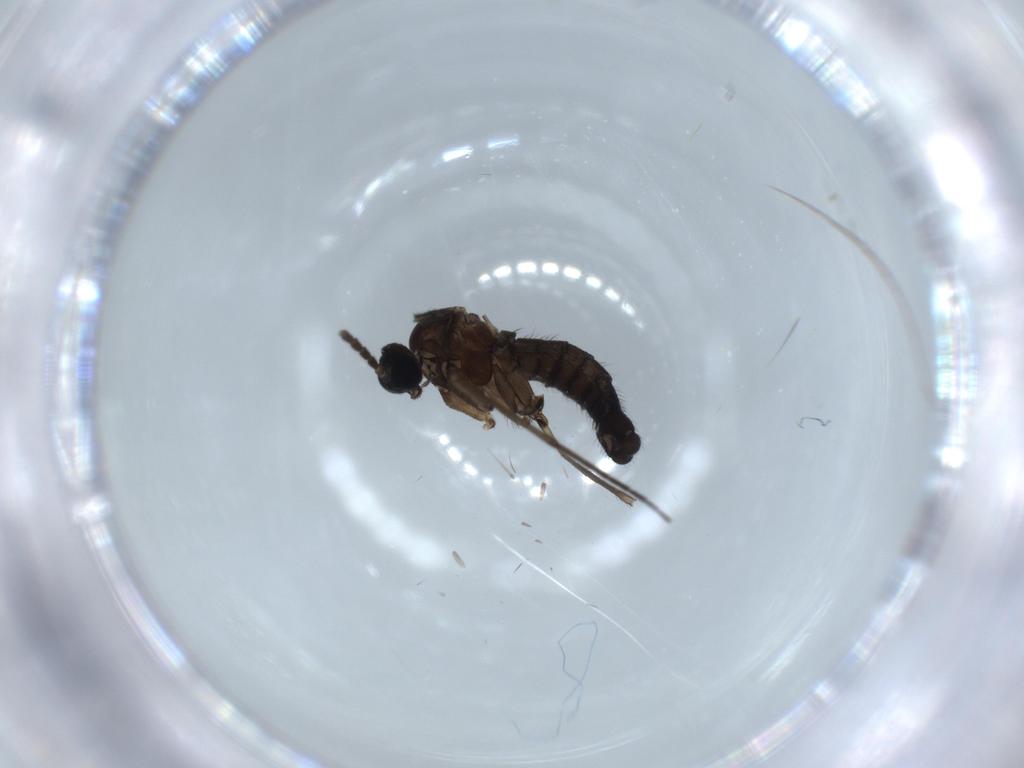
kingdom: Animalia
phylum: Arthropoda
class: Insecta
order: Diptera
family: Sciaridae
